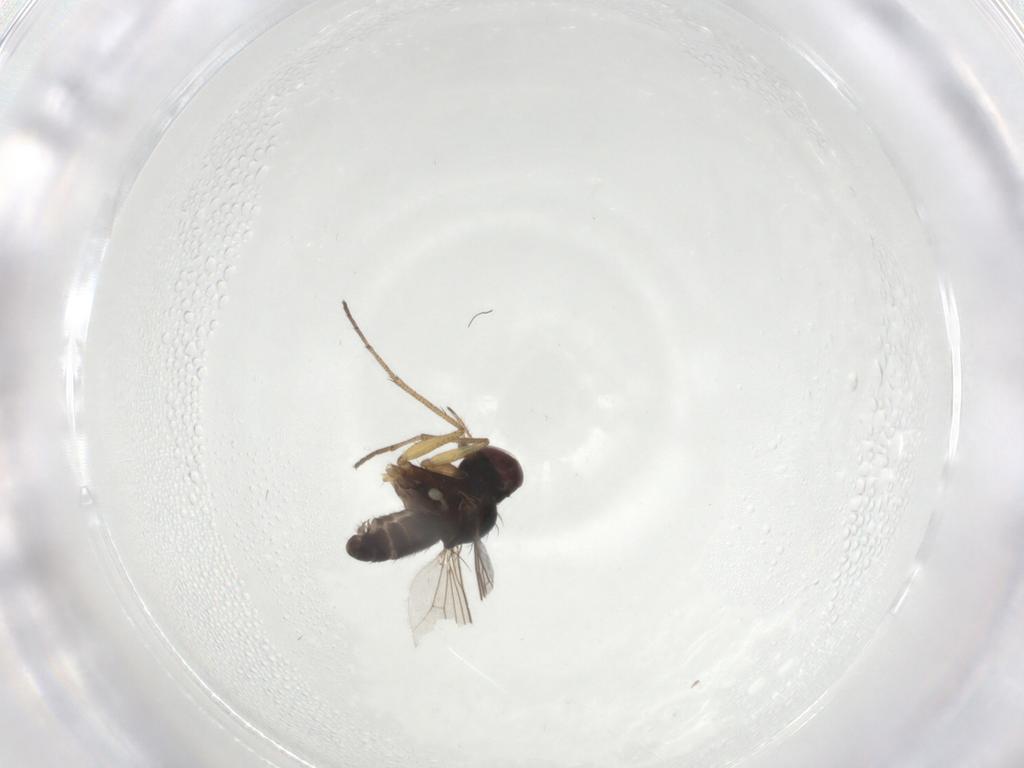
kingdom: Animalia
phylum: Arthropoda
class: Insecta
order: Diptera
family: Dolichopodidae
